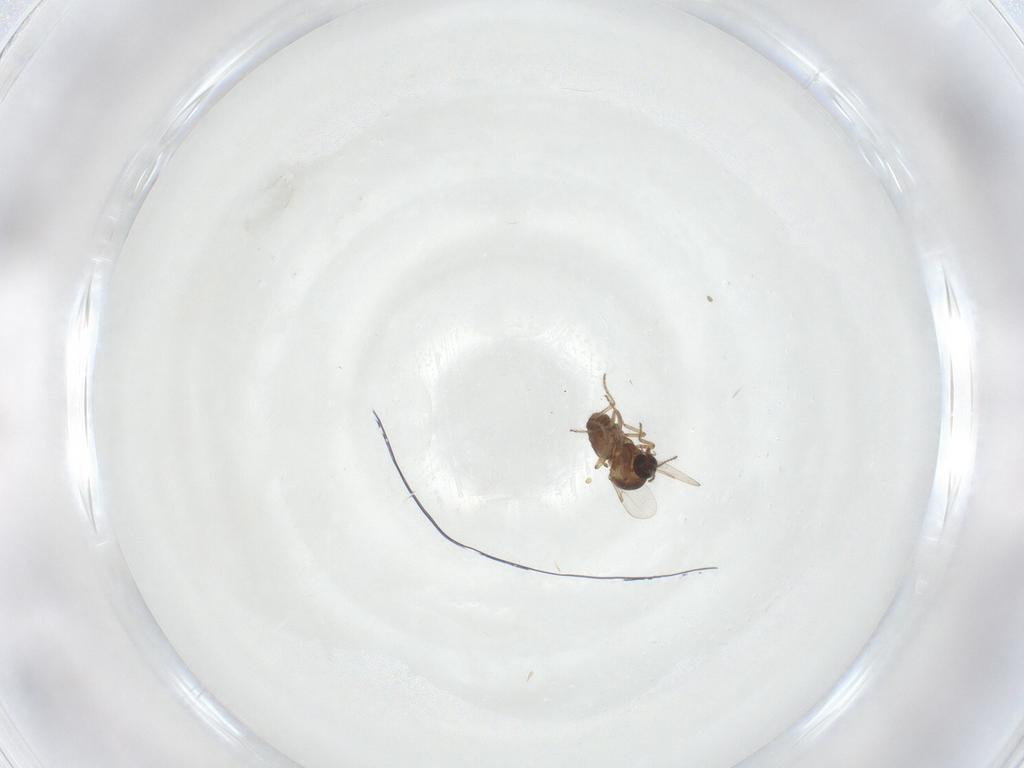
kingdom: Animalia
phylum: Arthropoda
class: Insecta
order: Diptera
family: Ceratopogonidae
